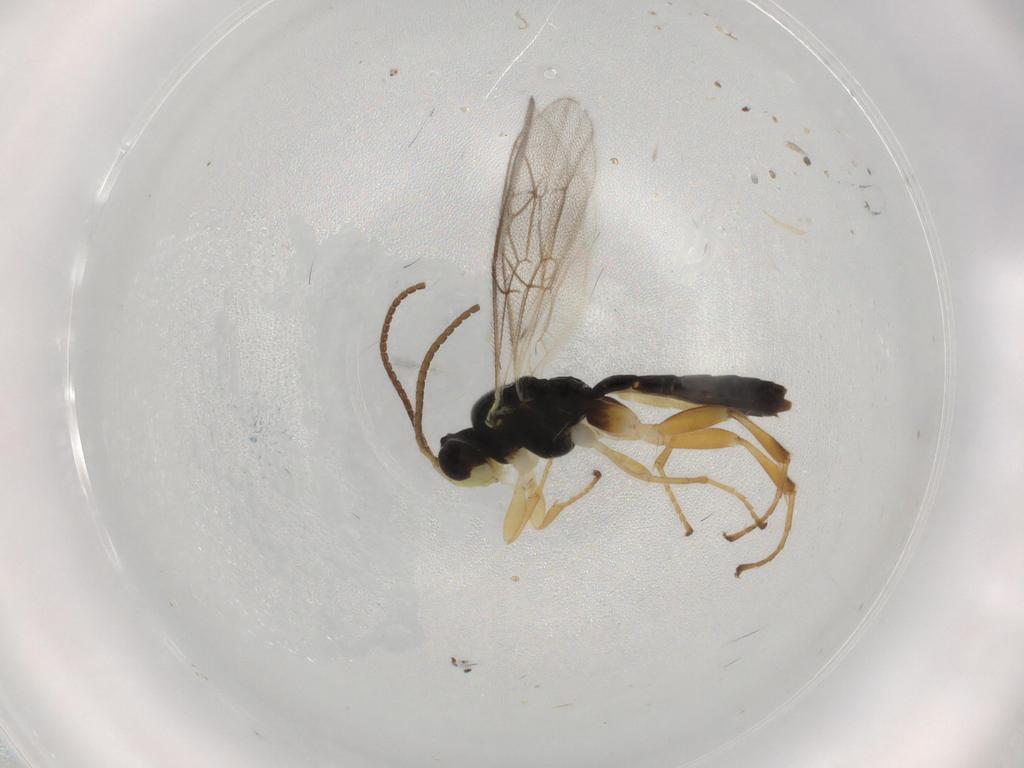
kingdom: Animalia
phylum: Arthropoda
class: Insecta
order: Hymenoptera
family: Ichneumonidae
